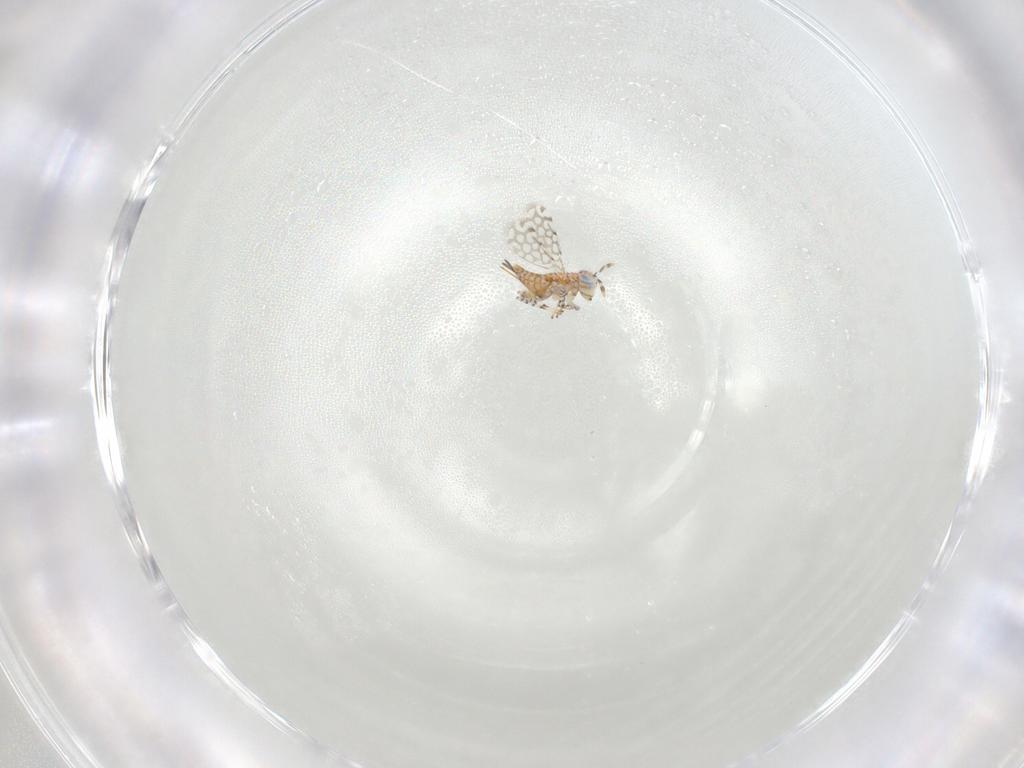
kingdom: Animalia
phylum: Arthropoda
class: Insecta
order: Hymenoptera
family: Aphelinidae
